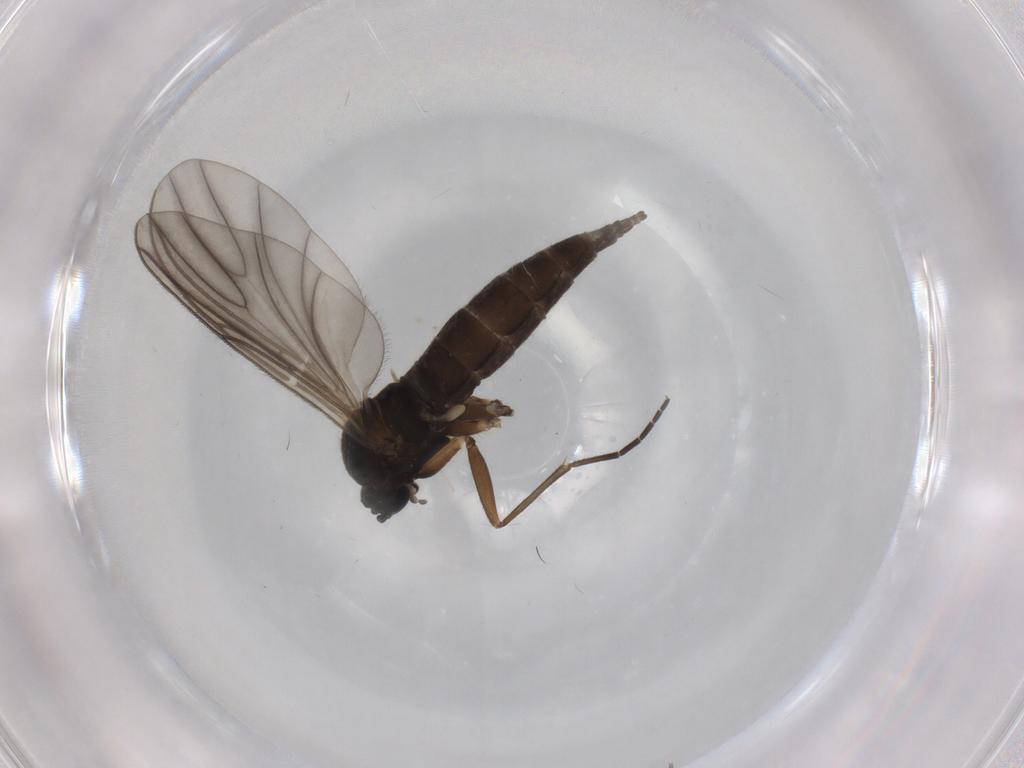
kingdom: Animalia
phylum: Arthropoda
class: Insecta
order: Diptera
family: Sciaridae
